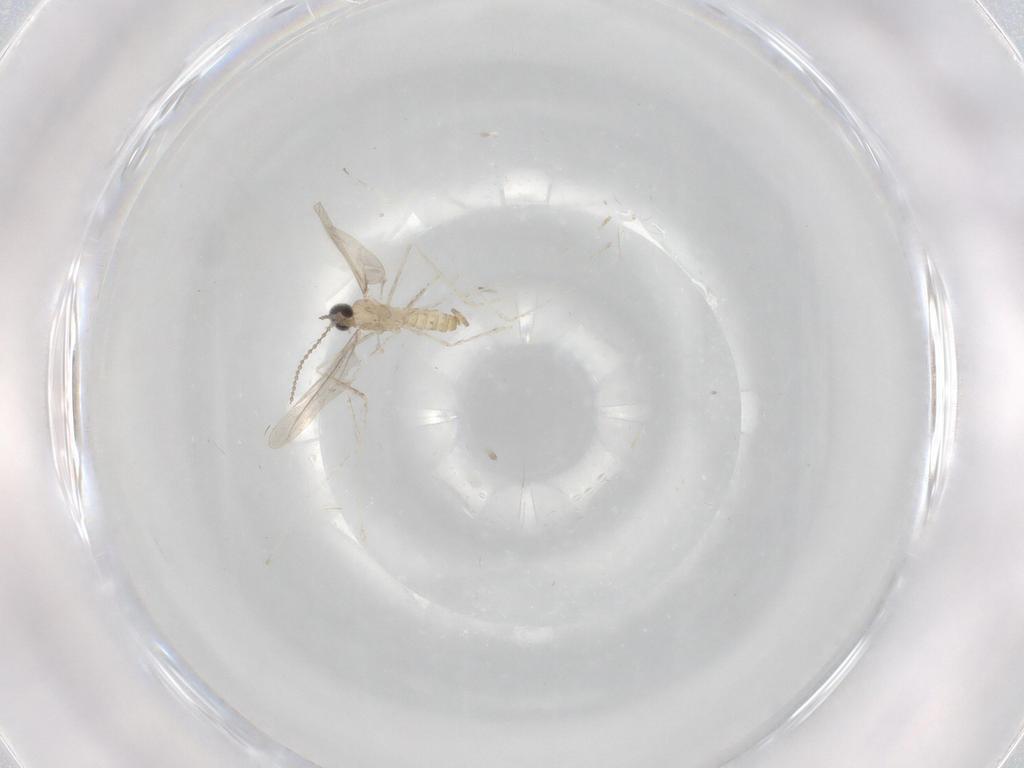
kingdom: Animalia
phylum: Arthropoda
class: Insecta
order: Diptera
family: Cecidomyiidae
